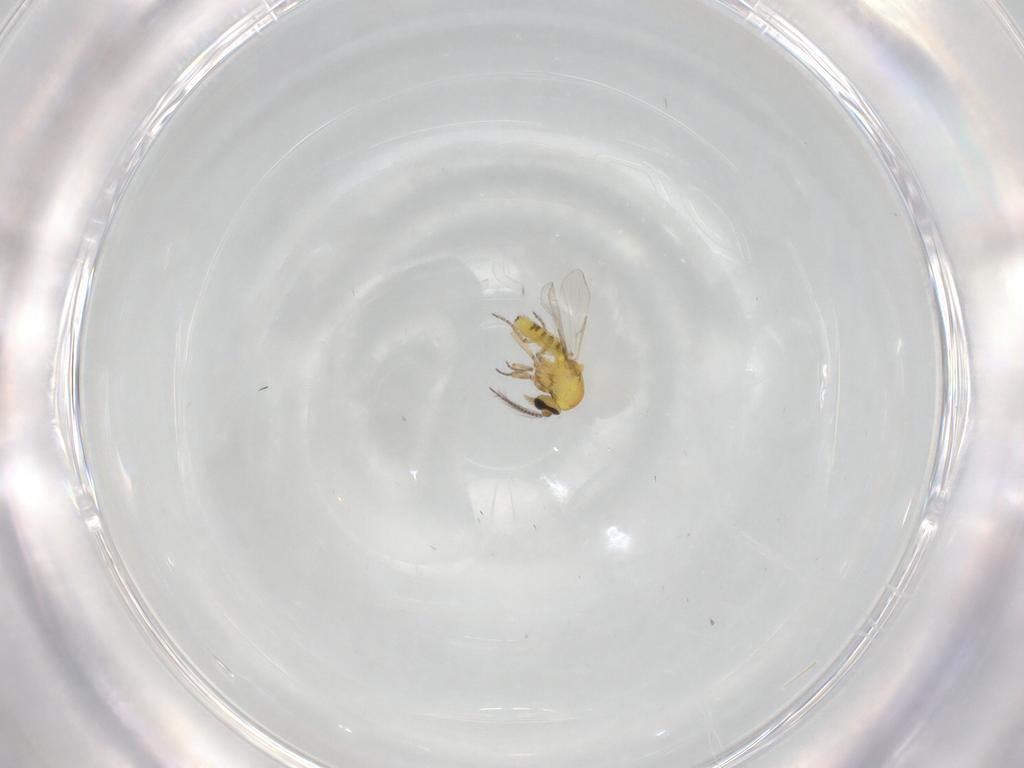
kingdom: Animalia
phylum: Arthropoda
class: Insecta
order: Diptera
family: Ceratopogonidae
